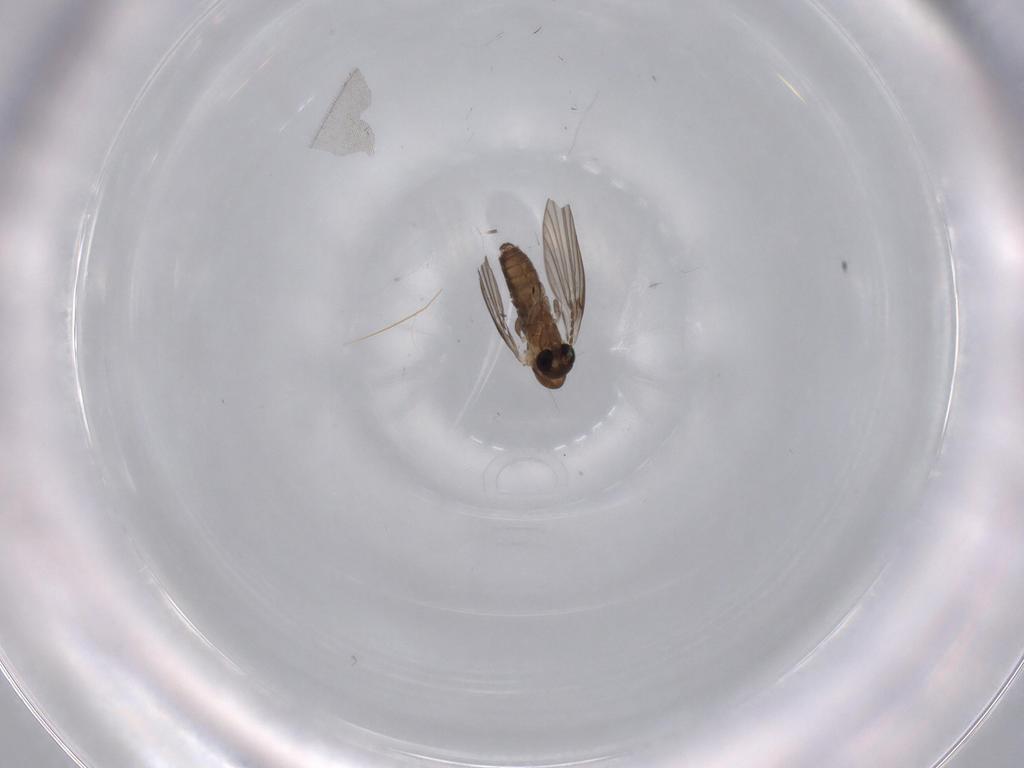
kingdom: Animalia
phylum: Arthropoda
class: Insecta
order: Diptera
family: Psychodidae
